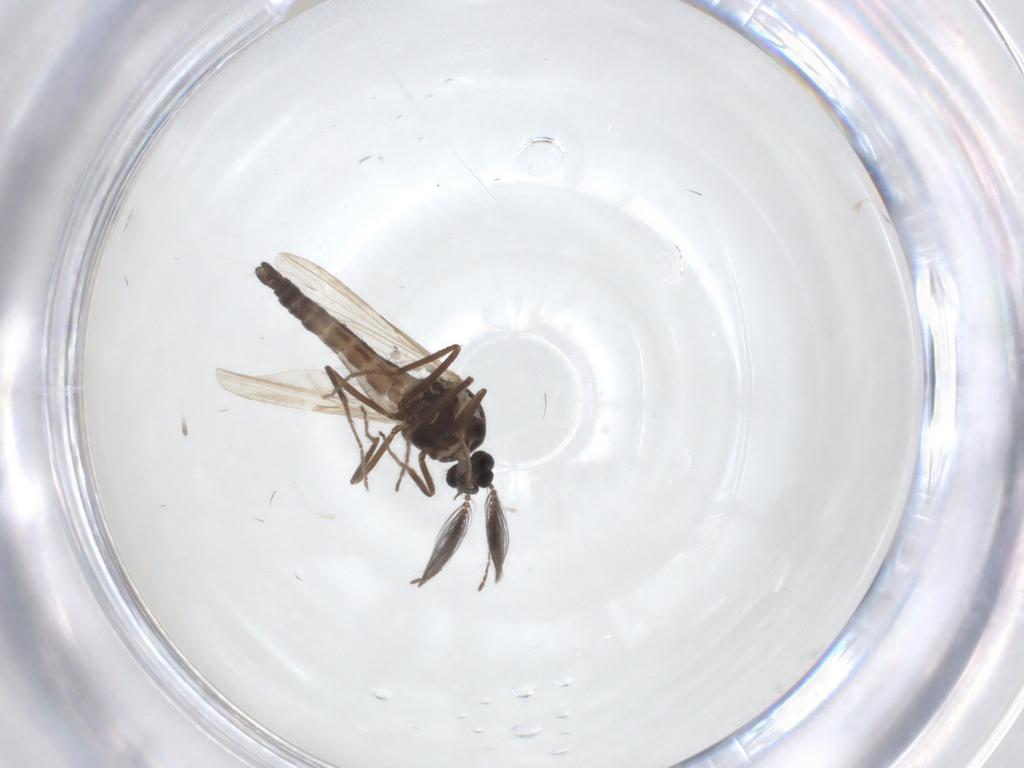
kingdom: Animalia
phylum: Arthropoda
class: Insecta
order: Diptera
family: Ceratopogonidae
